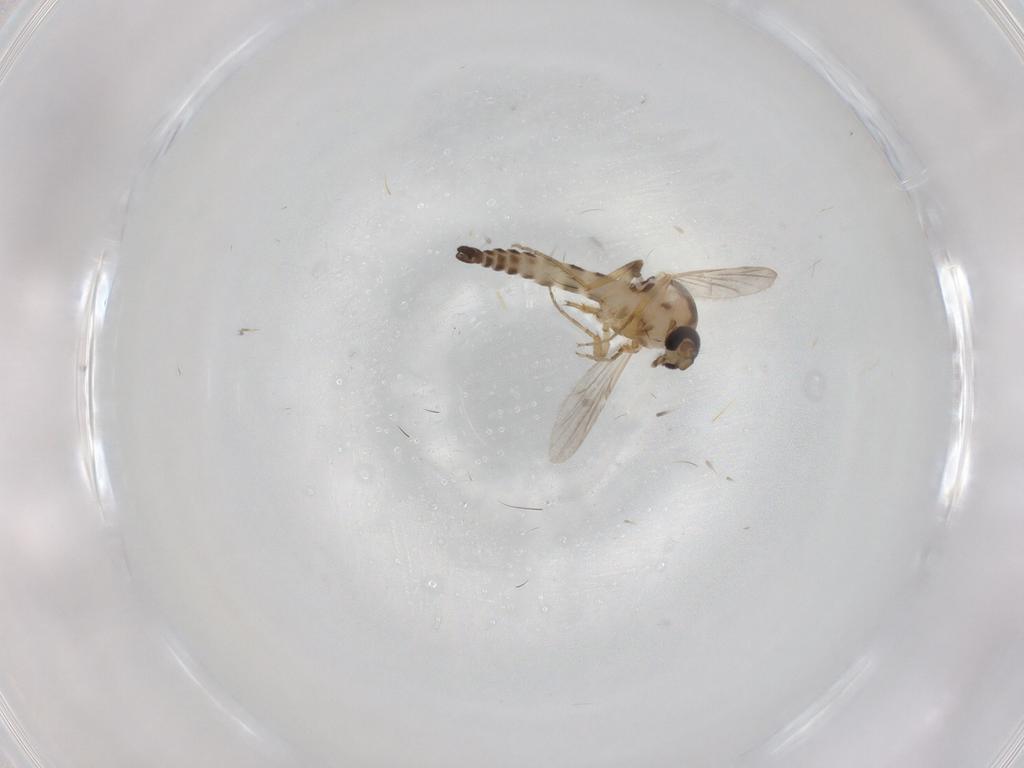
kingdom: Animalia
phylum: Arthropoda
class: Insecta
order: Diptera
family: Ceratopogonidae
